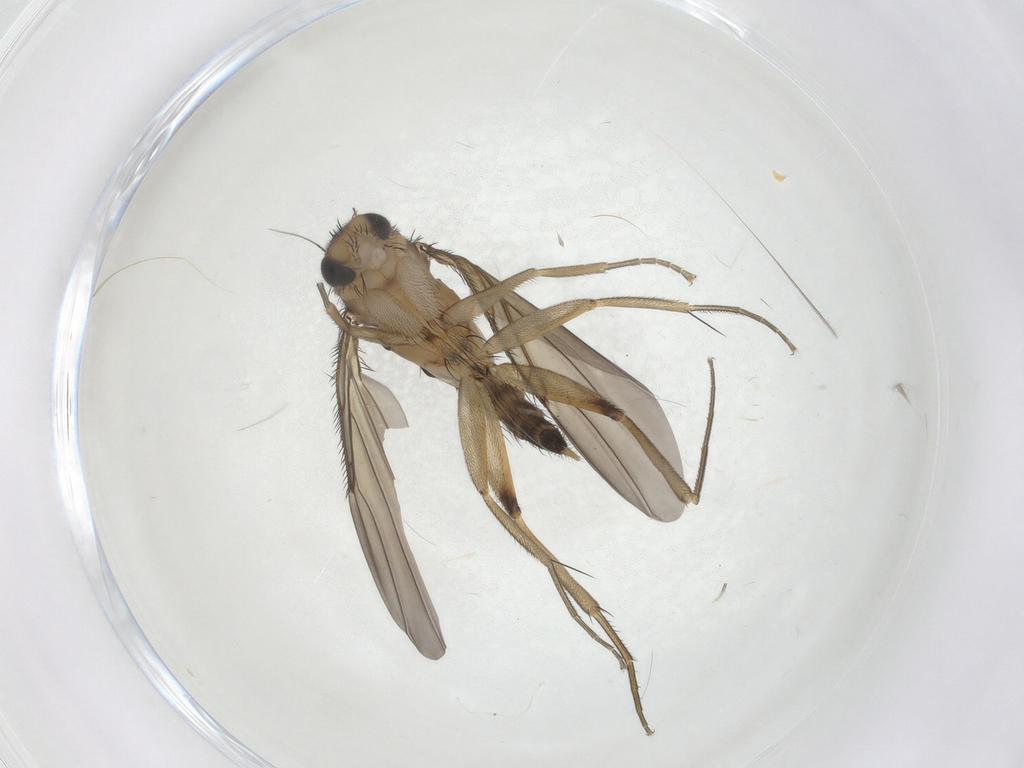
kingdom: Animalia
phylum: Arthropoda
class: Insecta
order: Diptera
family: Phoridae
